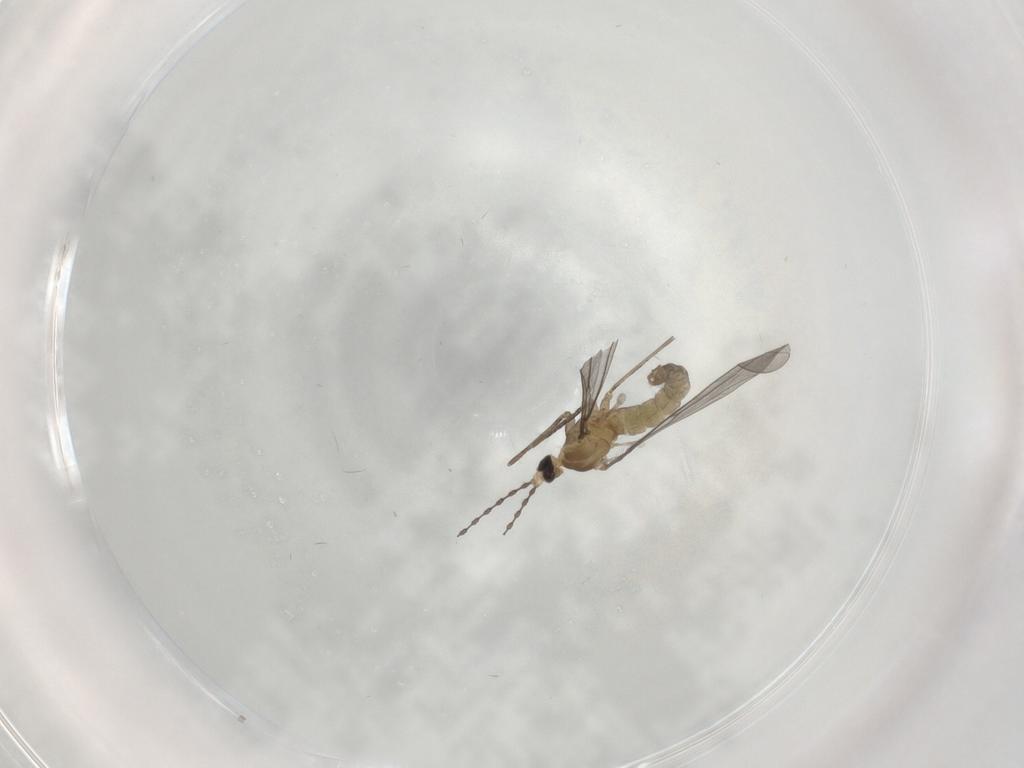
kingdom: Animalia
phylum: Arthropoda
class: Insecta
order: Diptera
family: Cecidomyiidae
